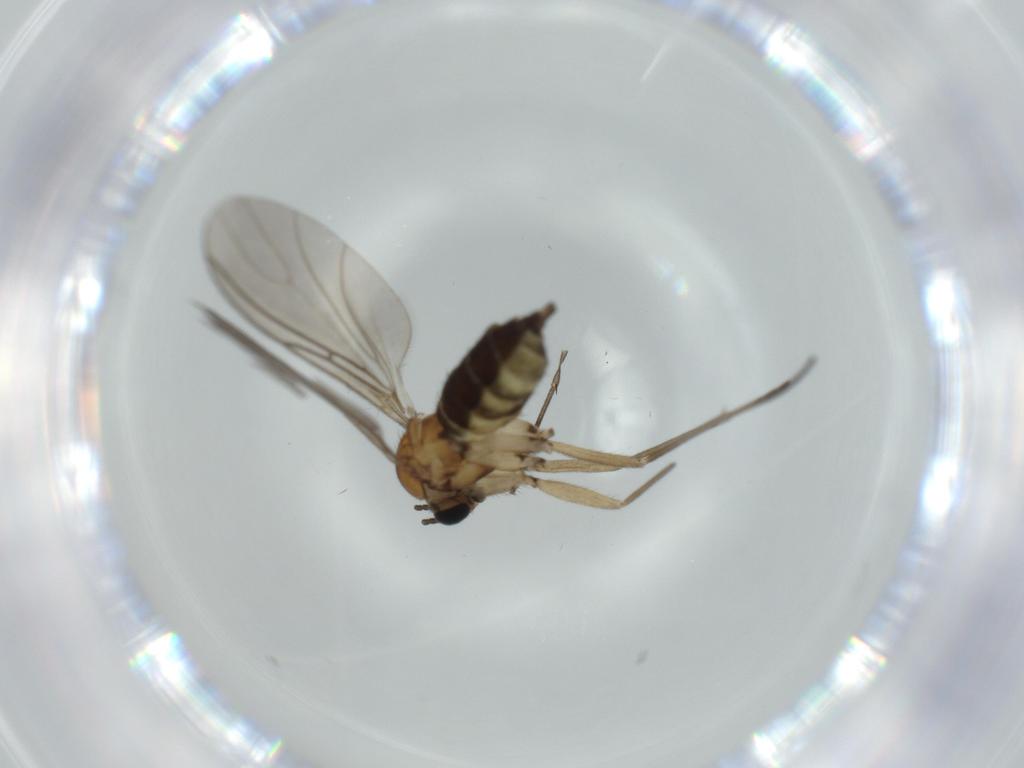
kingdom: Animalia
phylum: Arthropoda
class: Insecta
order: Diptera
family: Sciaridae
